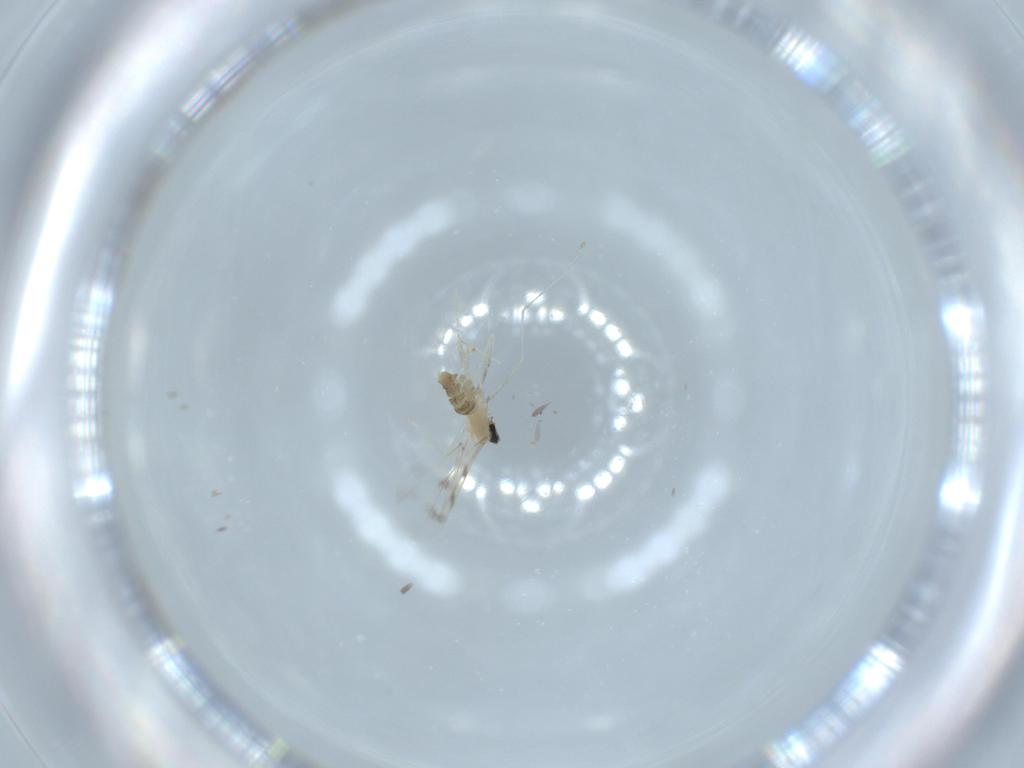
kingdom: Animalia
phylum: Arthropoda
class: Insecta
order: Diptera
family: Cecidomyiidae
